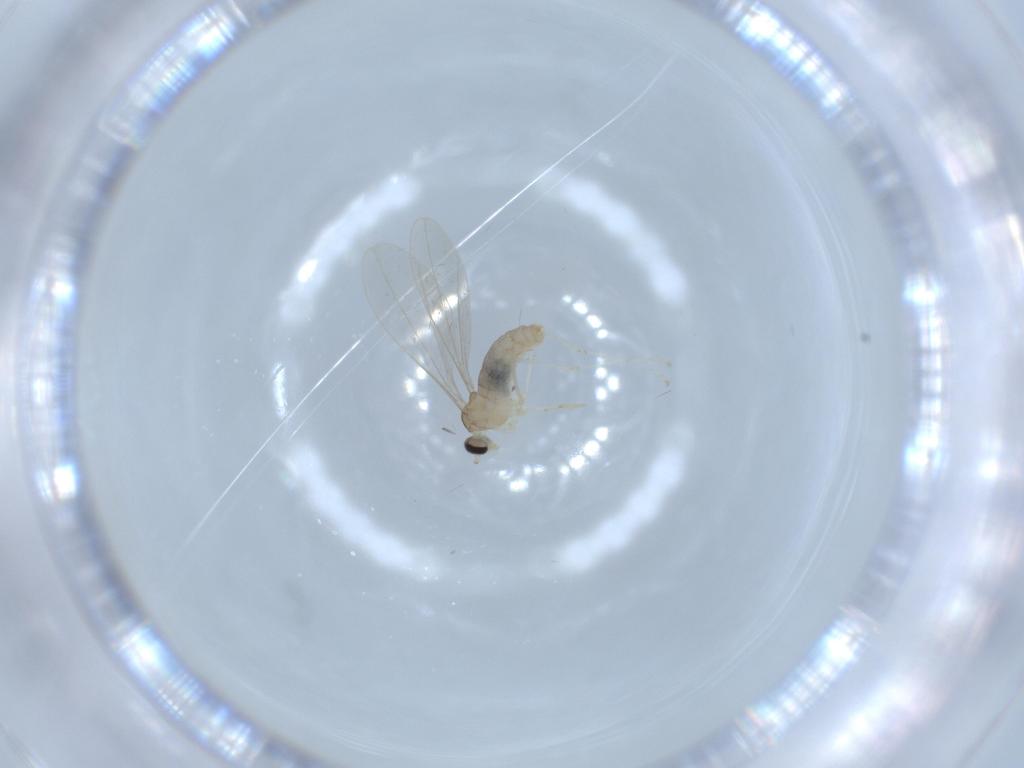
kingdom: Animalia
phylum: Arthropoda
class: Insecta
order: Diptera
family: Cecidomyiidae
